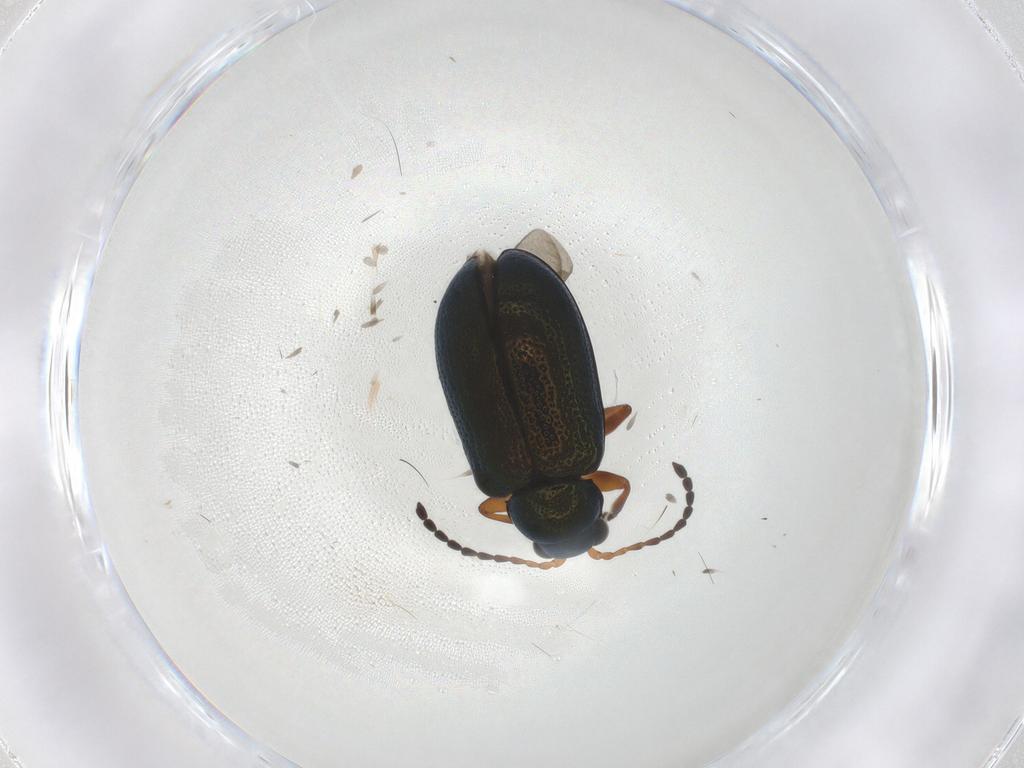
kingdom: Animalia
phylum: Arthropoda
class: Insecta
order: Coleoptera
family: Chrysomelidae
